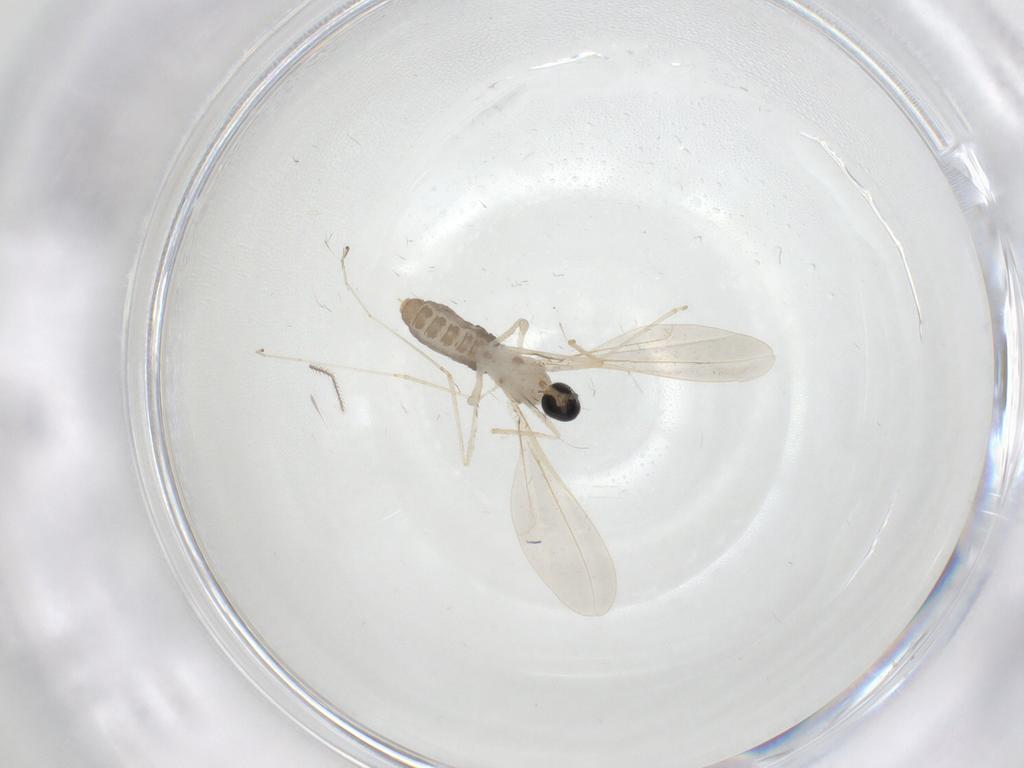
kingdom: Animalia
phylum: Arthropoda
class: Insecta
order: Diptera
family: Cecidomyiidae
